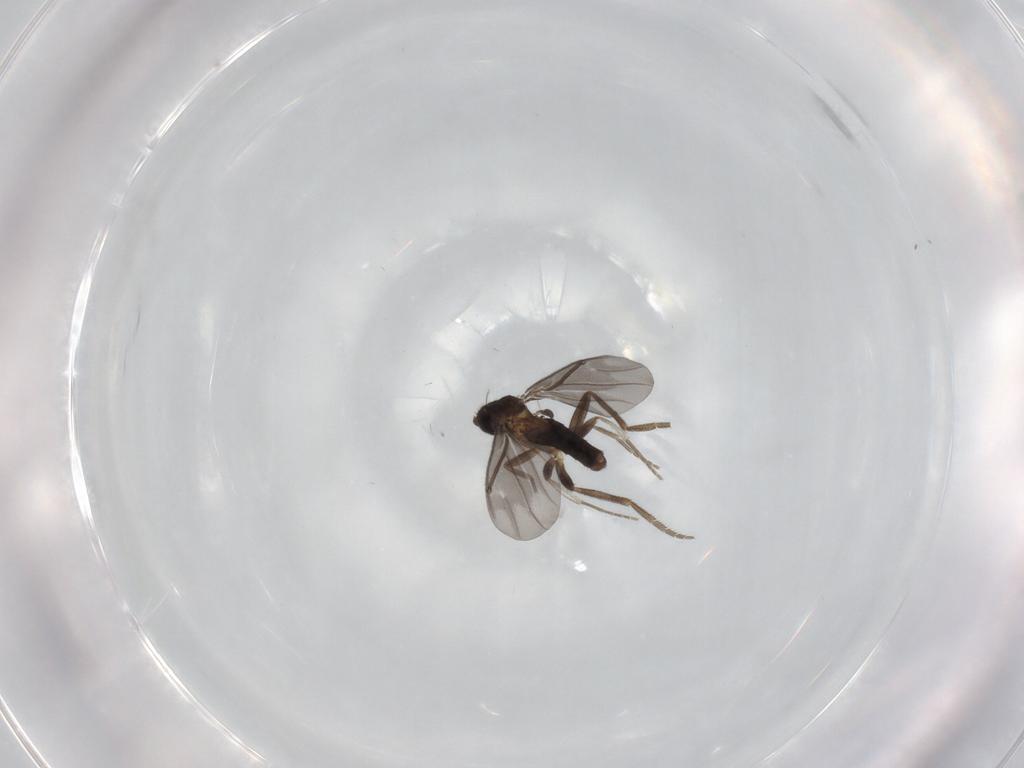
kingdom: Animalia
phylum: Arthropoda
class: Insecta
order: Diptera
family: Phoridae
